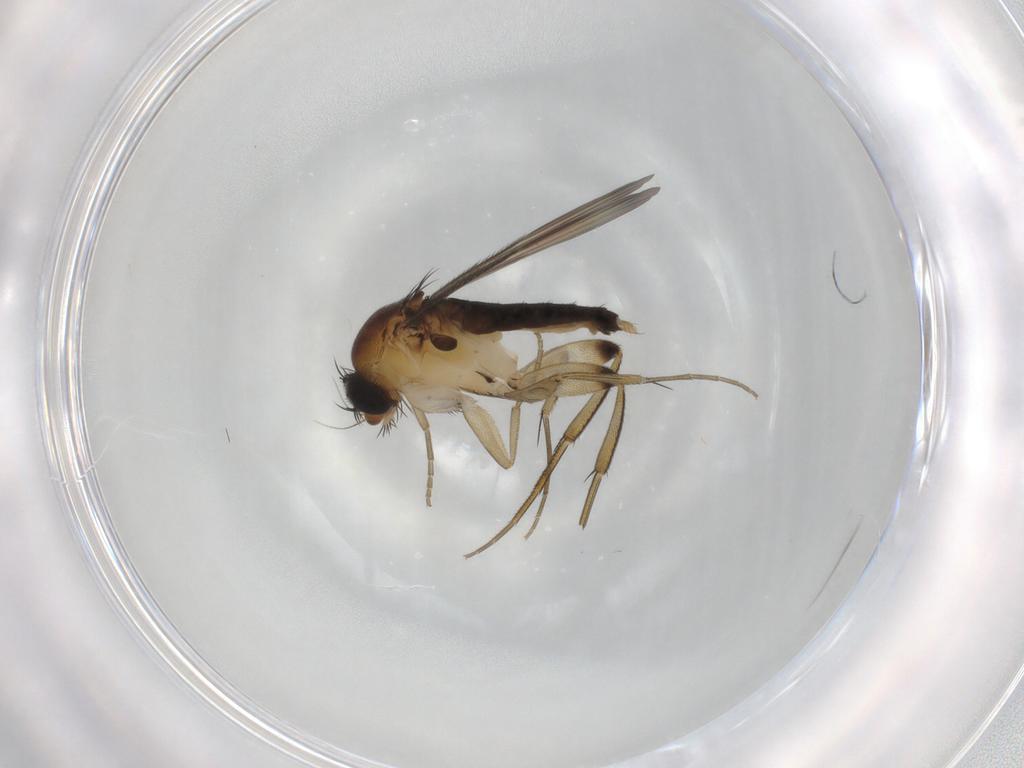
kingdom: Animalia
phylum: Arthropoda
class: Insecta
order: Diptera
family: Phoridae
